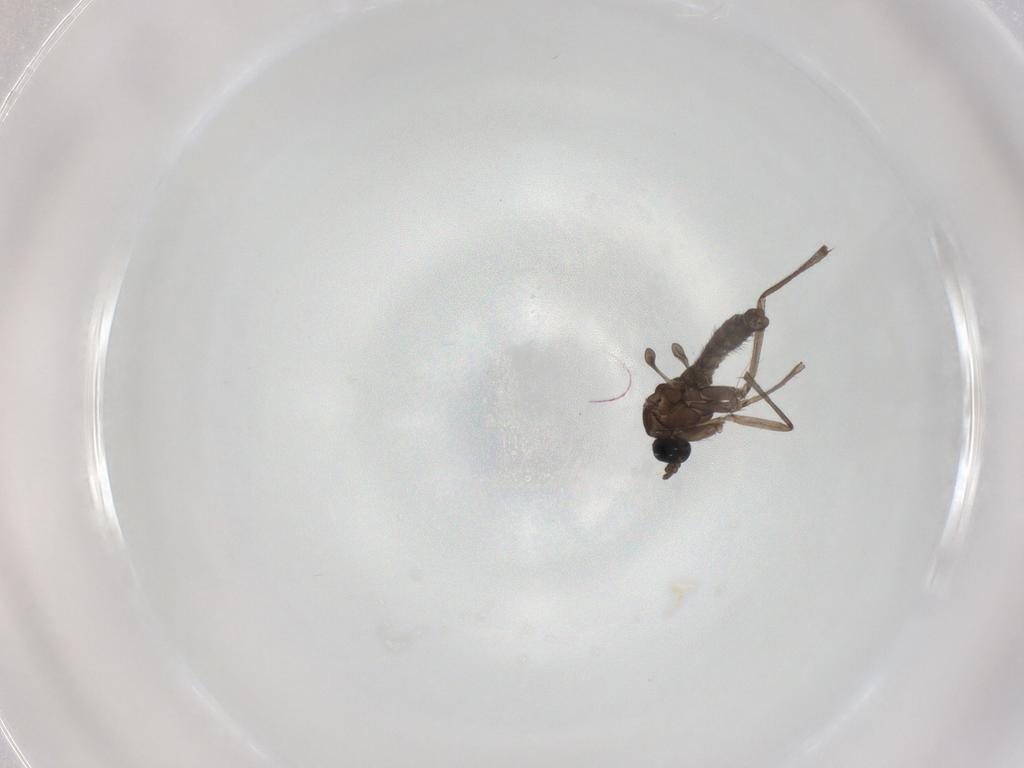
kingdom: Animalia
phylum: Arthropoda
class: Insecta
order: Diptera
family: Sciaridae
